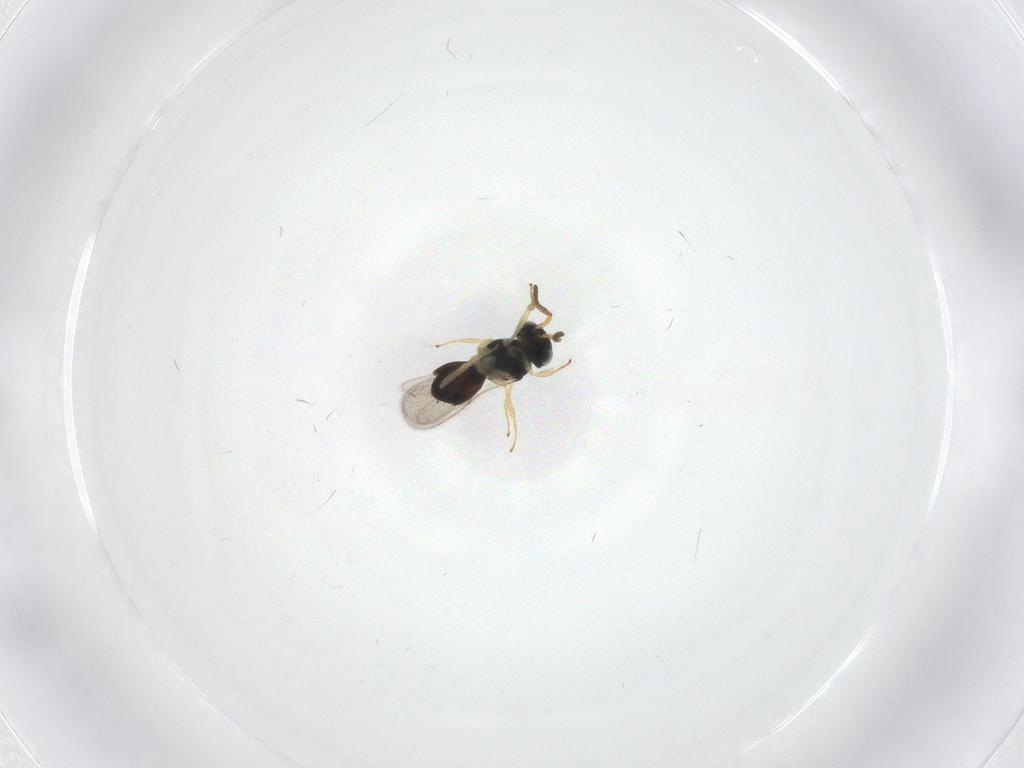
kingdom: Animalia
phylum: Arthropoda
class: Insecta
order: Hymenoptera
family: Scelionidae
